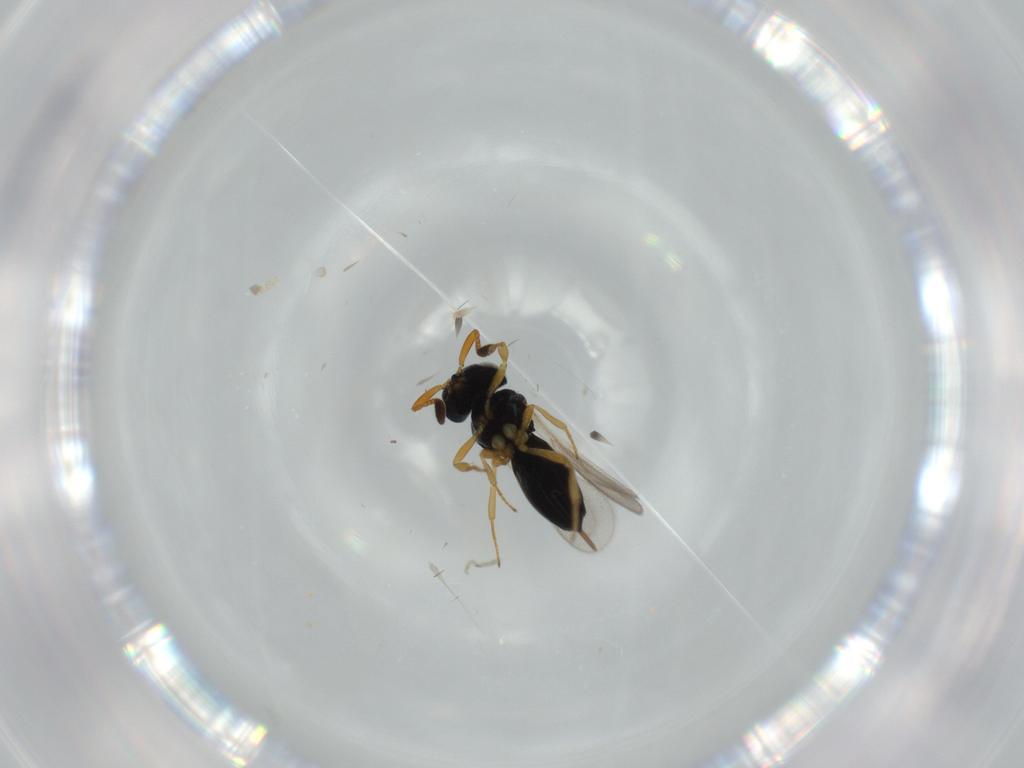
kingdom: Animalia
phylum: Arthropoda
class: Insecta
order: Hymenoptera
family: Scelionidae
